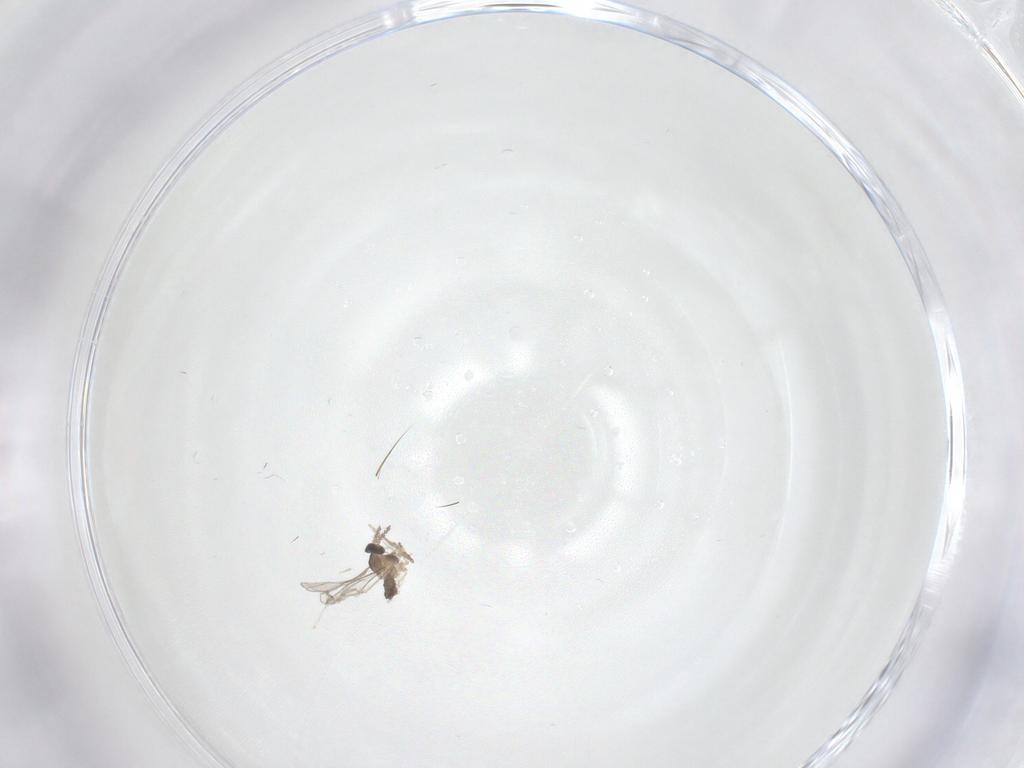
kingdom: Animalia
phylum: Arthropoda
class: Insecta
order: Diptera
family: Cecidomyiidae
